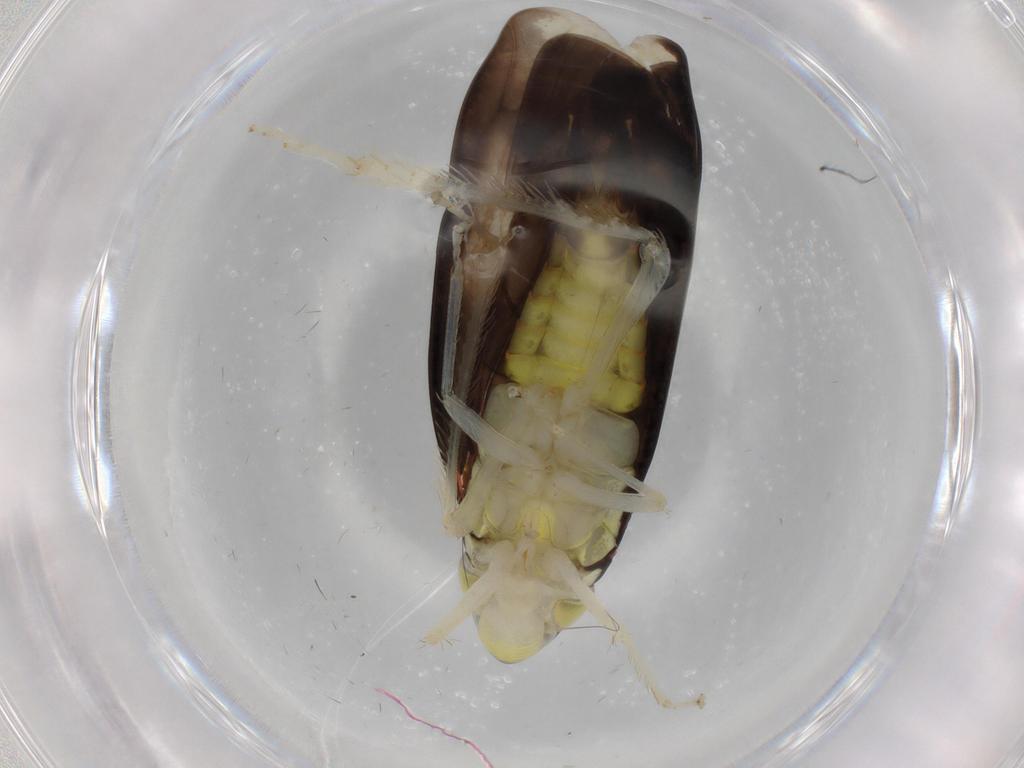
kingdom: Animalia
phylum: Arthropoda
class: Insecta
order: Hemiptera
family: Cicadellidae
